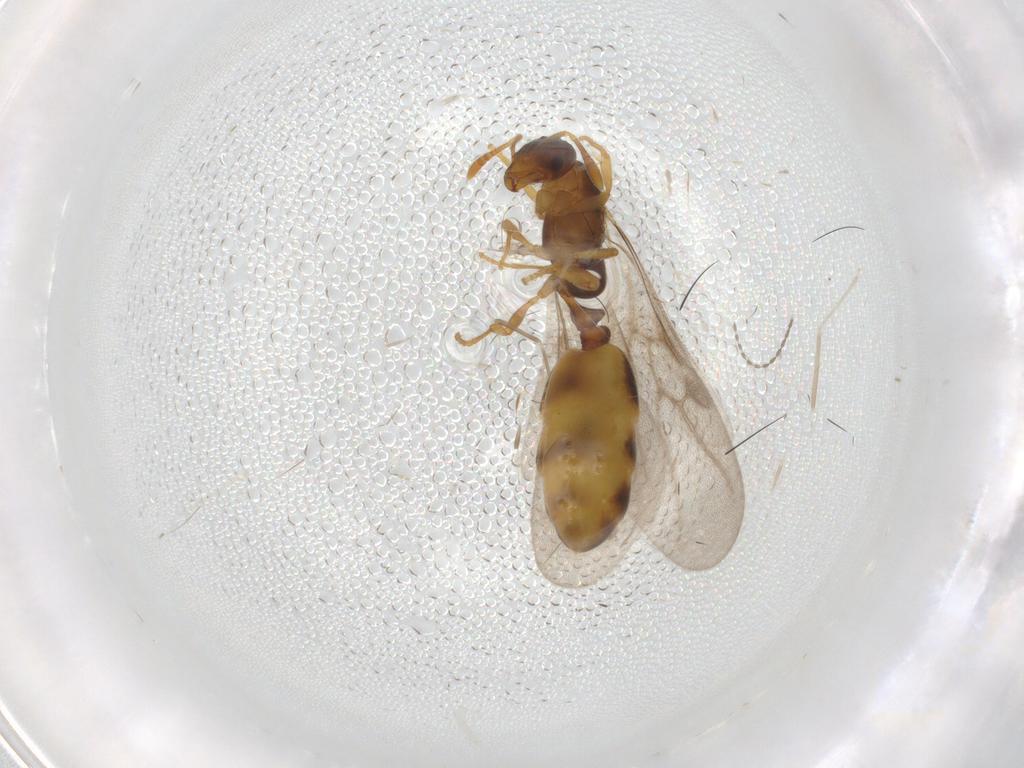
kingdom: Animalia
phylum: Arthropoda
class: Insecta
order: Hymenoptera
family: Formicidae
